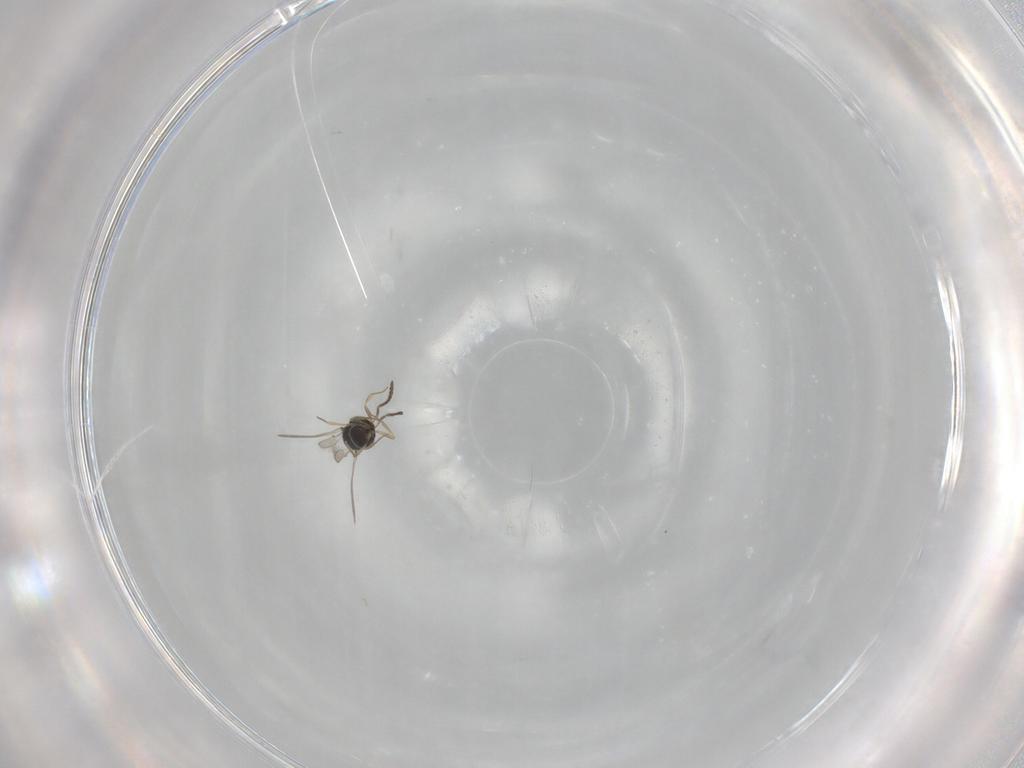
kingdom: Animalia
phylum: Arthropoda
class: Insecta
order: Hymenoptera
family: Scelionidae
